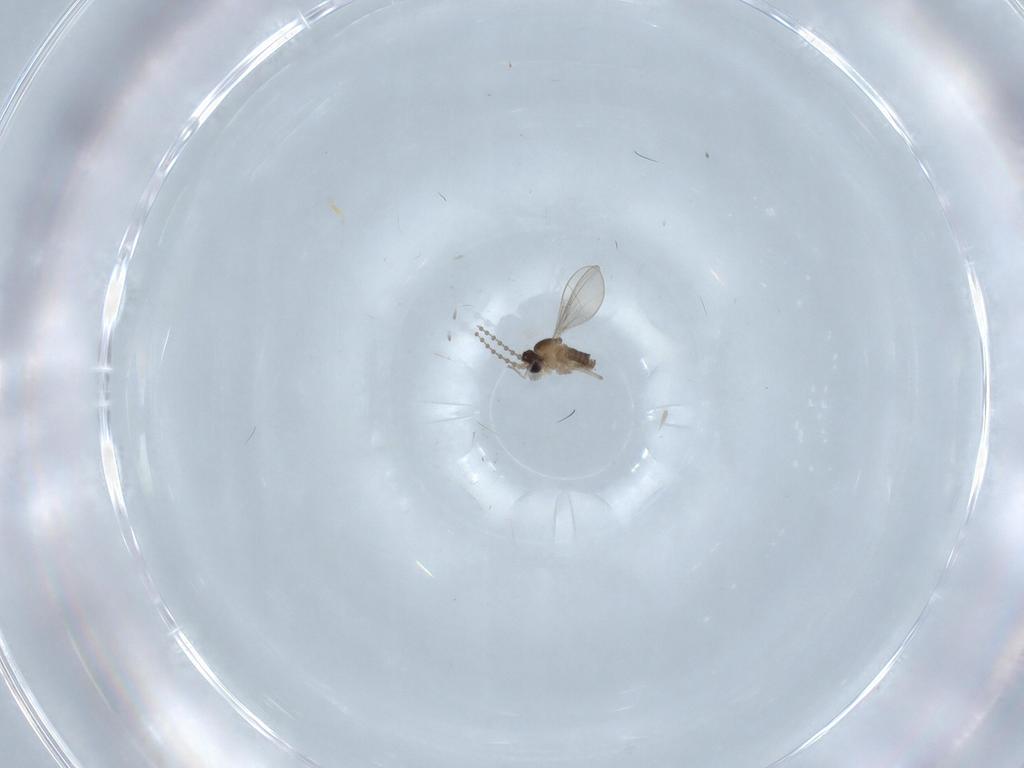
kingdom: Animalia
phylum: Arthropoda
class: Insecta
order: Diptera
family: Cecidomyiidae
